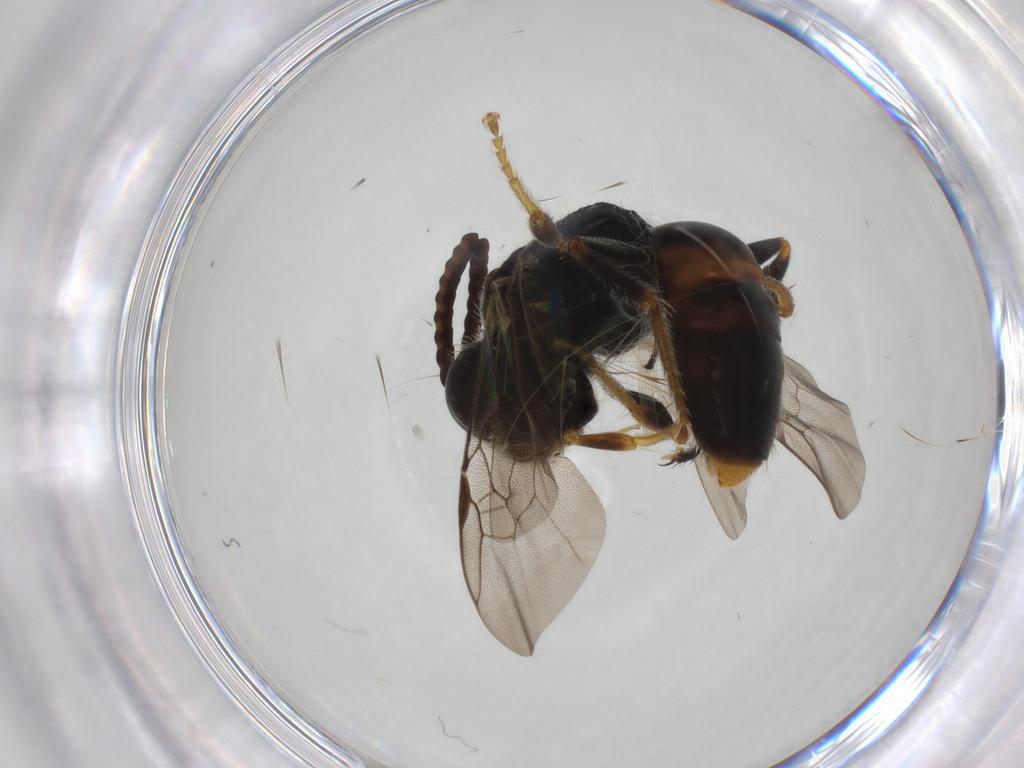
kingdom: Animalia
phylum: Arthropoda
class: Insecta
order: Hymenoptera
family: Halictidae
